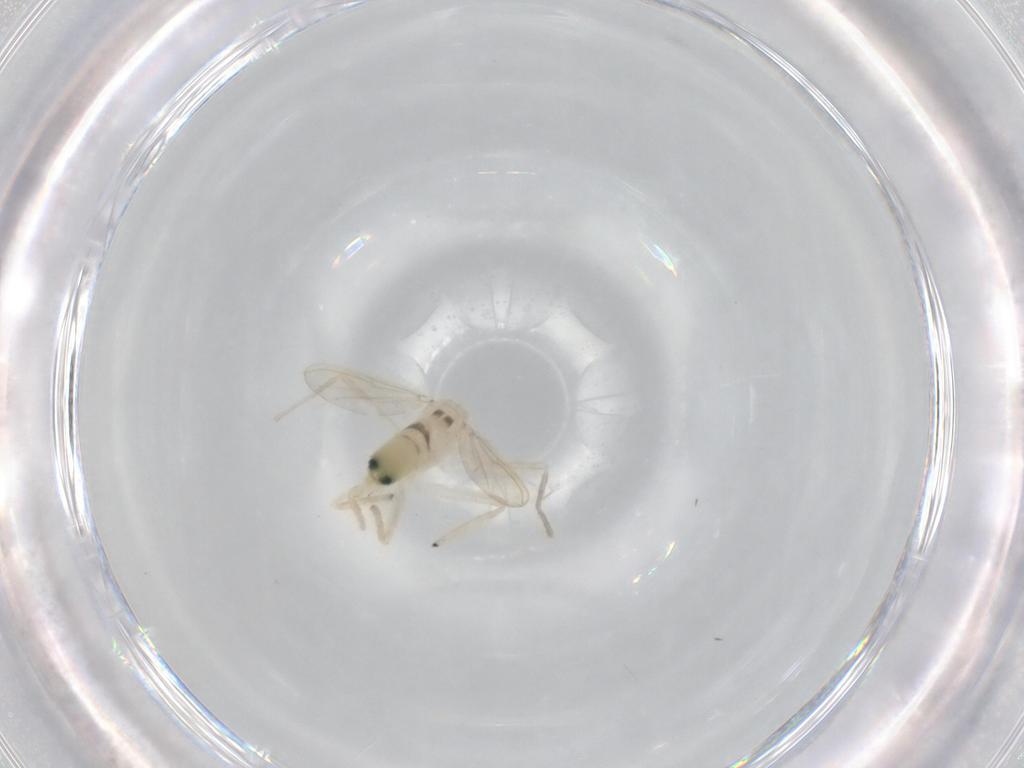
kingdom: Animalia
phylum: Arthropoda
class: Insecta
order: Diptera
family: Chironomidae
